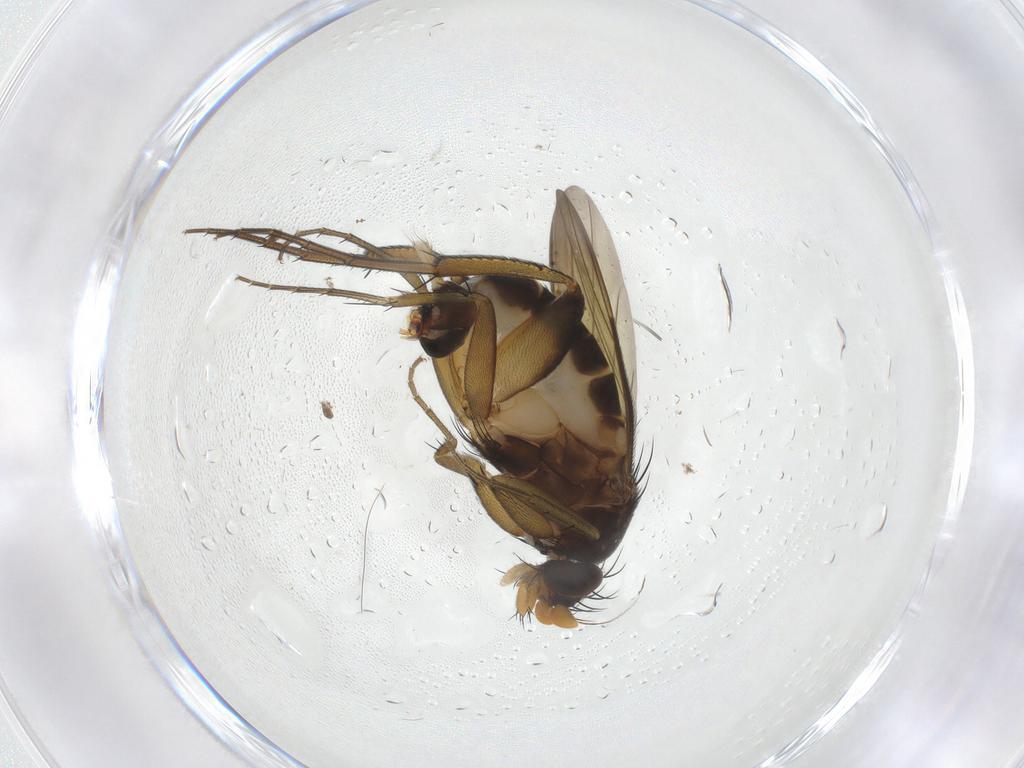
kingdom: Animalia
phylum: Arthropoda
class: Insecta
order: Diptera
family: Phoridae
